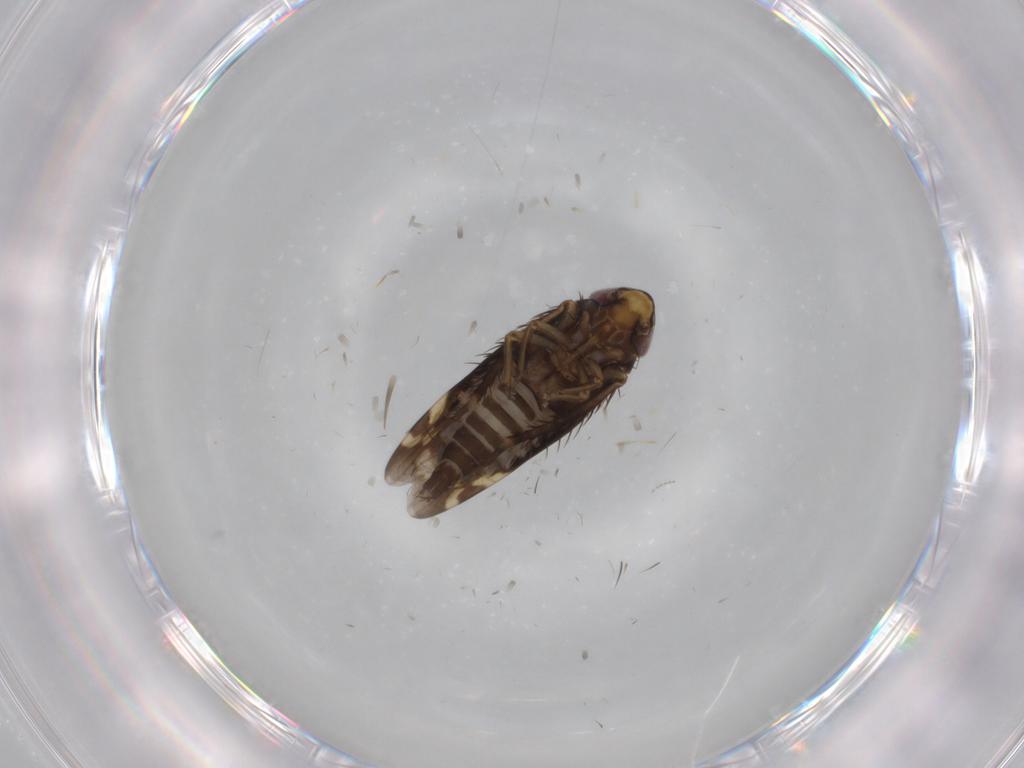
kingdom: Animalia
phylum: Arthropoda
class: Insecta
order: Hemiptera
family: Cicadellidae
